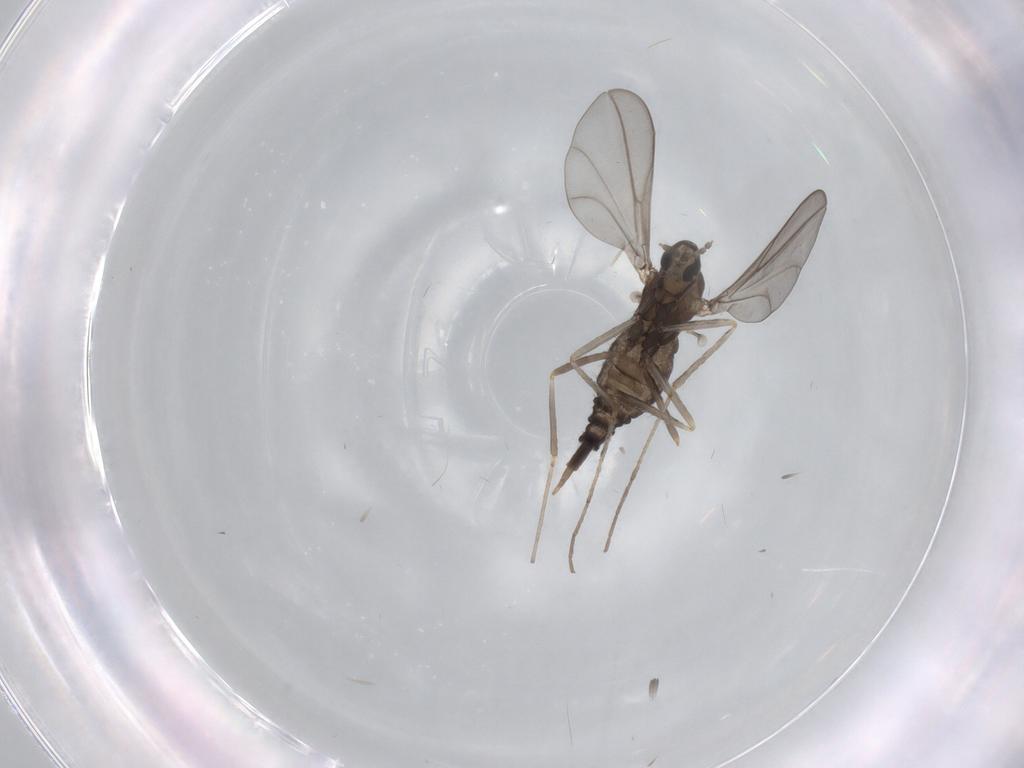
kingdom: Animalia
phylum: Arthropoda
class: Insecta
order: Diptera
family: Cecidomyiidae
